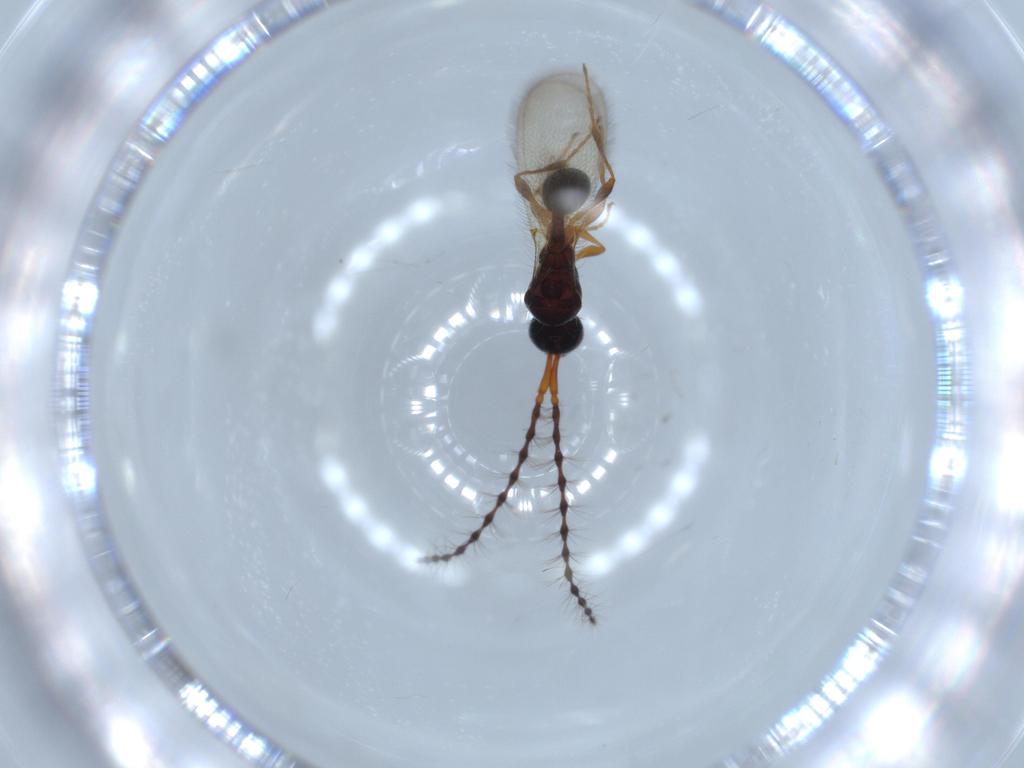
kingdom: Animalia
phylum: Arthropoda
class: Insecta
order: Hymenoptera
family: Diapriidae
